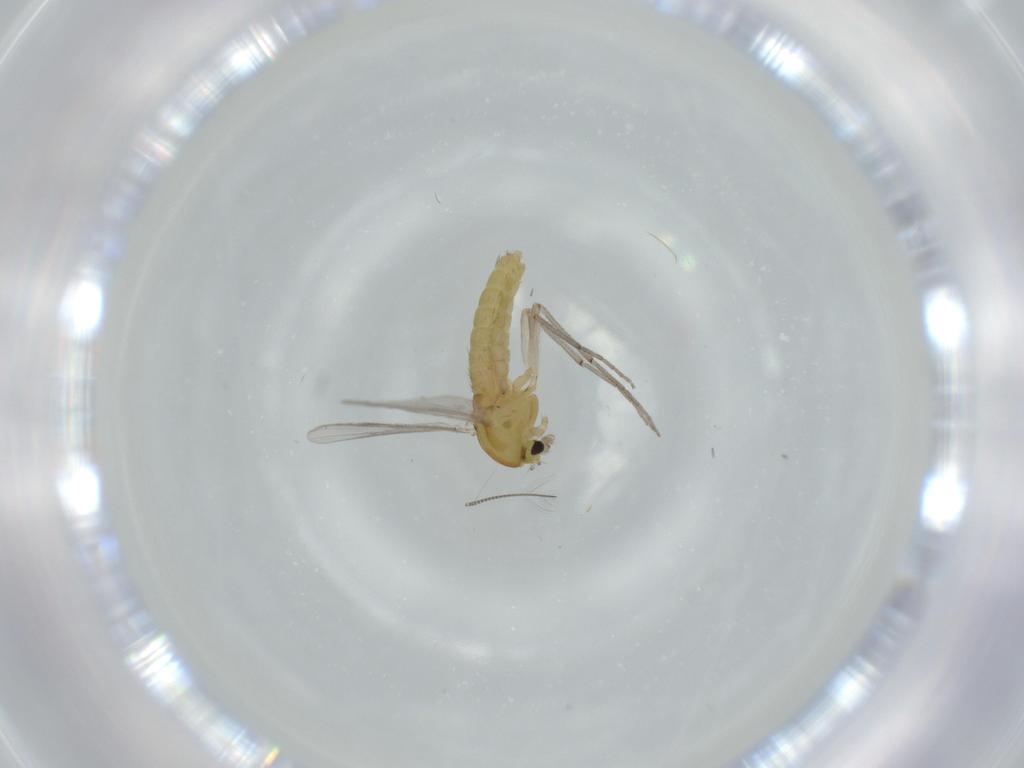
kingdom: Animalia
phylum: Arthropoda
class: Insecta
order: Diptera
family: Chironomidae
